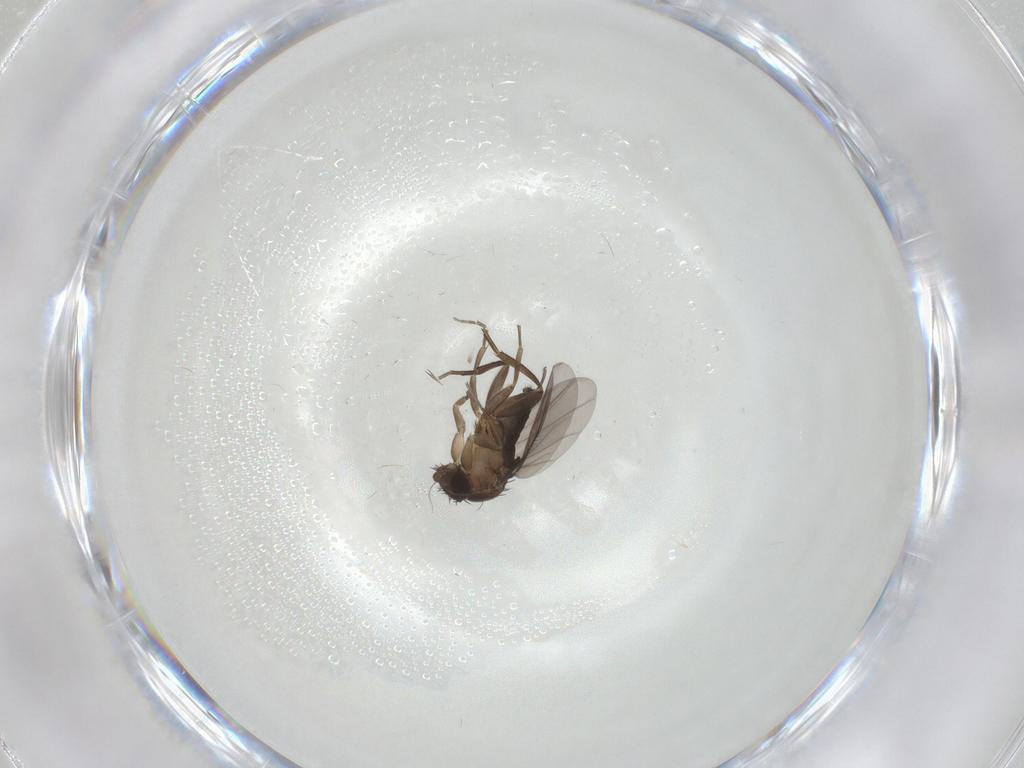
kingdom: Animalia
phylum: Arthropoda
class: Insecta
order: Diptera
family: Phoridae
